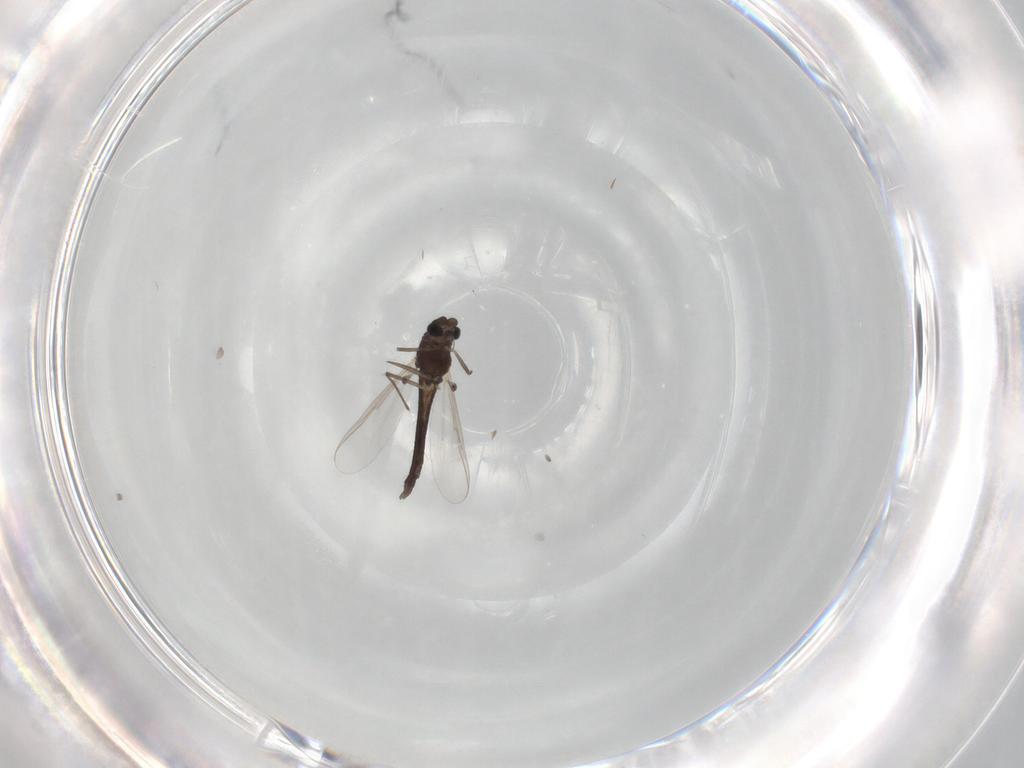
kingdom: Animalia
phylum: Arthropoda
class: Insecta
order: Diptera
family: Chironomidae
